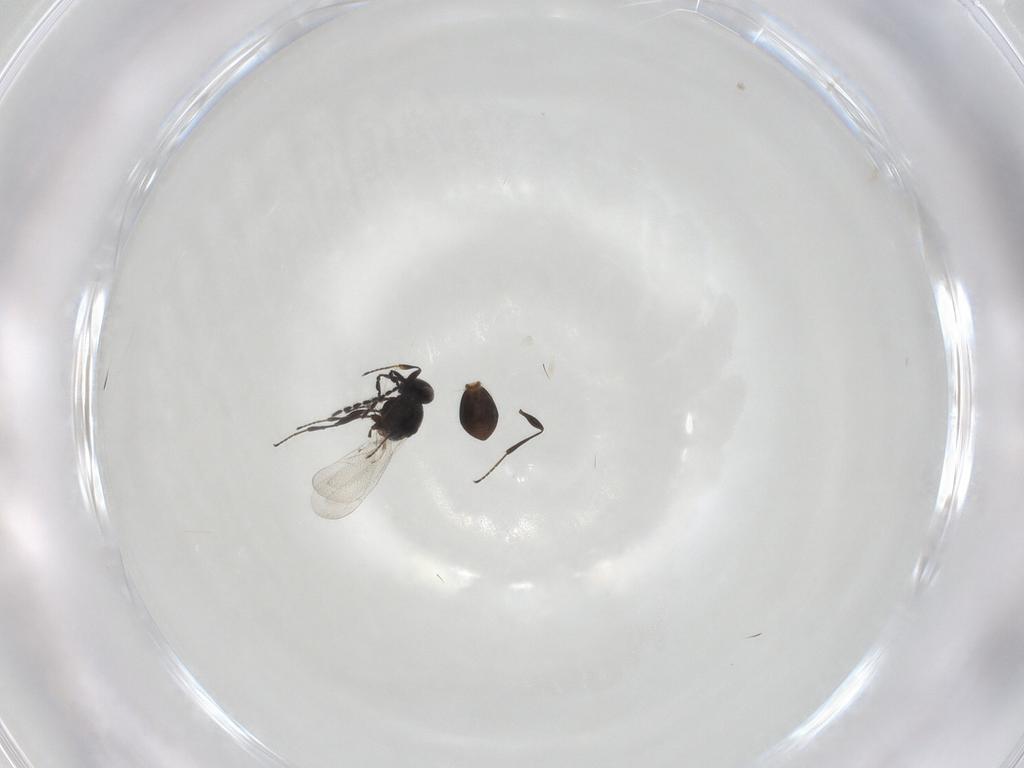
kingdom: Animalia
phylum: Arthropoda
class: Insecta
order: Hymenoptera
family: Platygastridae
